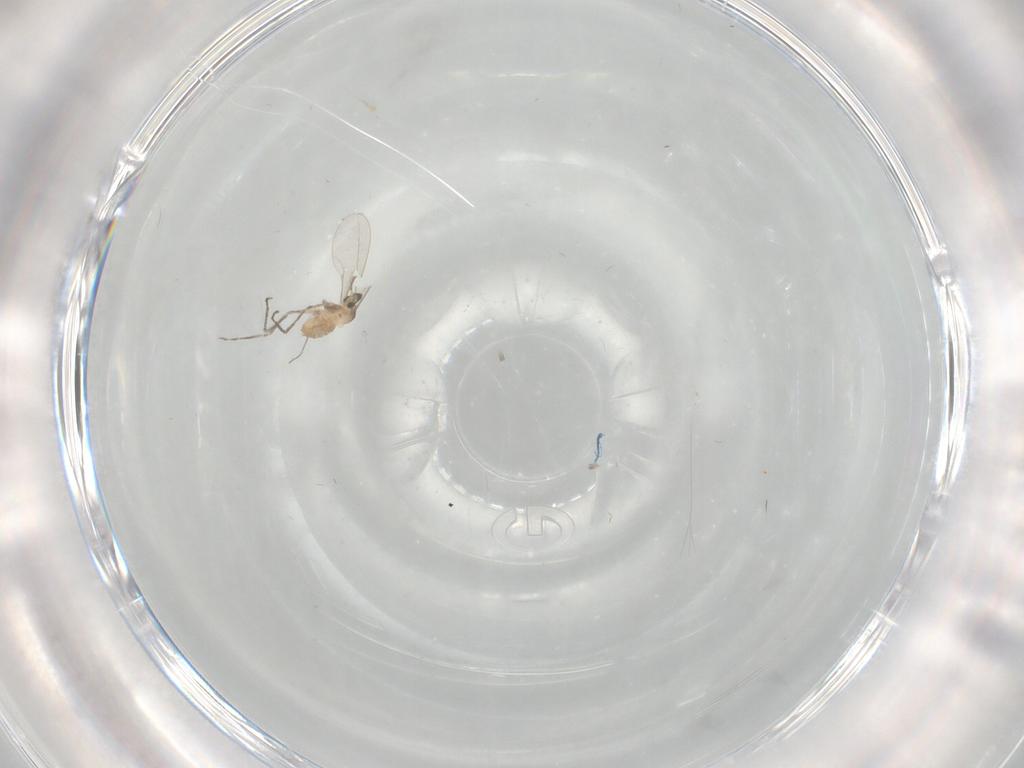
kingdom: Animalia
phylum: Arthropoda
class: Insecta
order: Diptera
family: Cecidomyiidae
